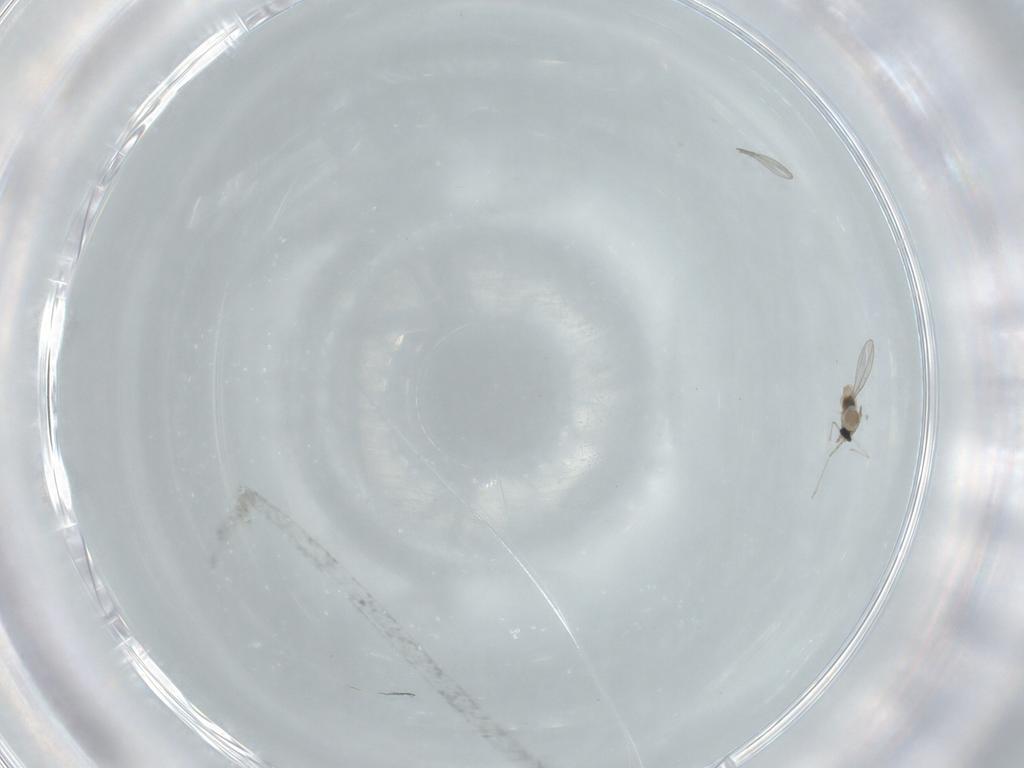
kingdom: Animalia
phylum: Arthropoda
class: Insecta
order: Diptera
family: Cecidomyiidae
